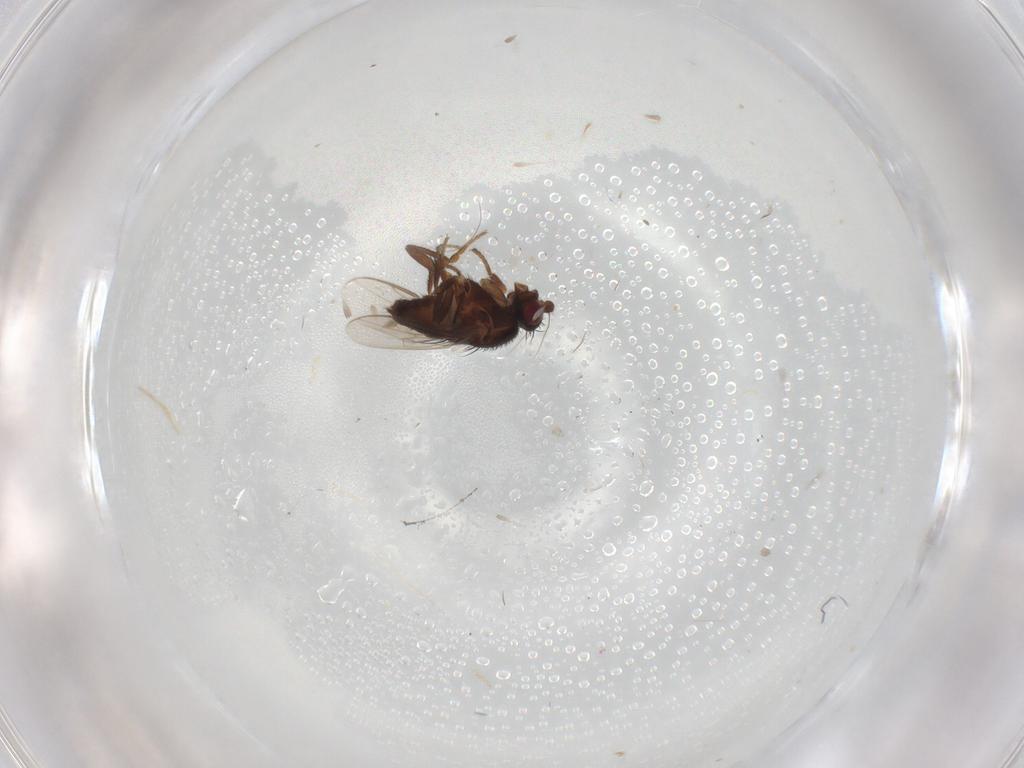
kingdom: Animalia
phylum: Arthropoda
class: Insecta
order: Diptera
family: Sphaeroceridae
